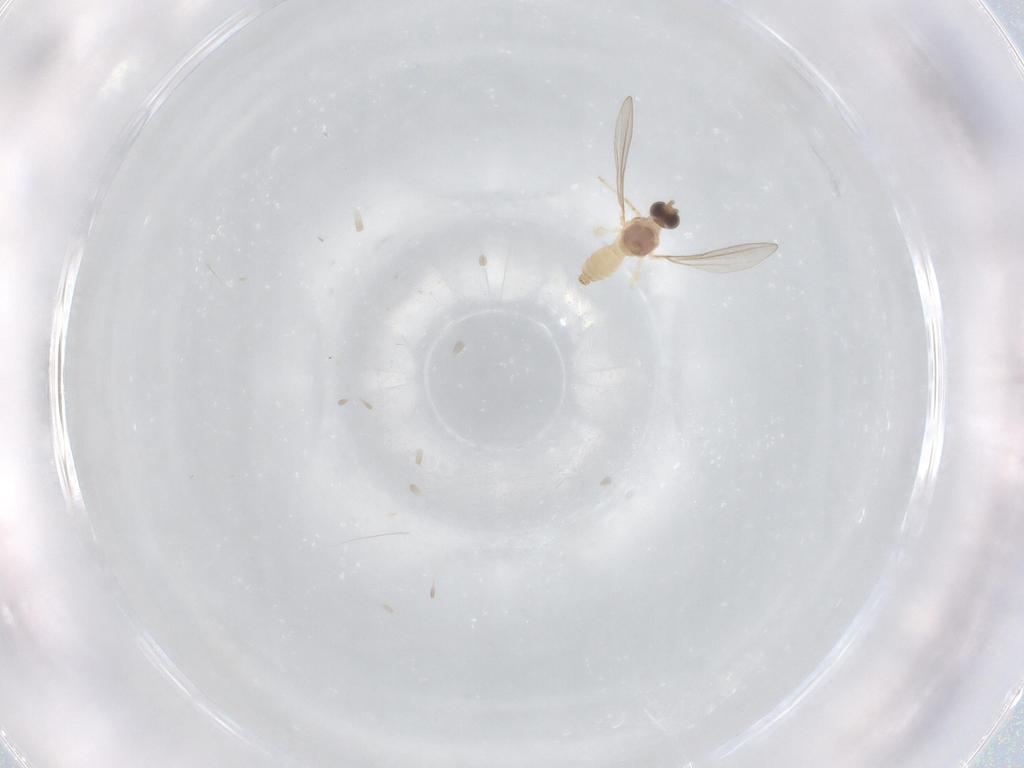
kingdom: Animalia
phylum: Arthropoda
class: Insecta
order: Diptera
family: Cecidomyiidae
